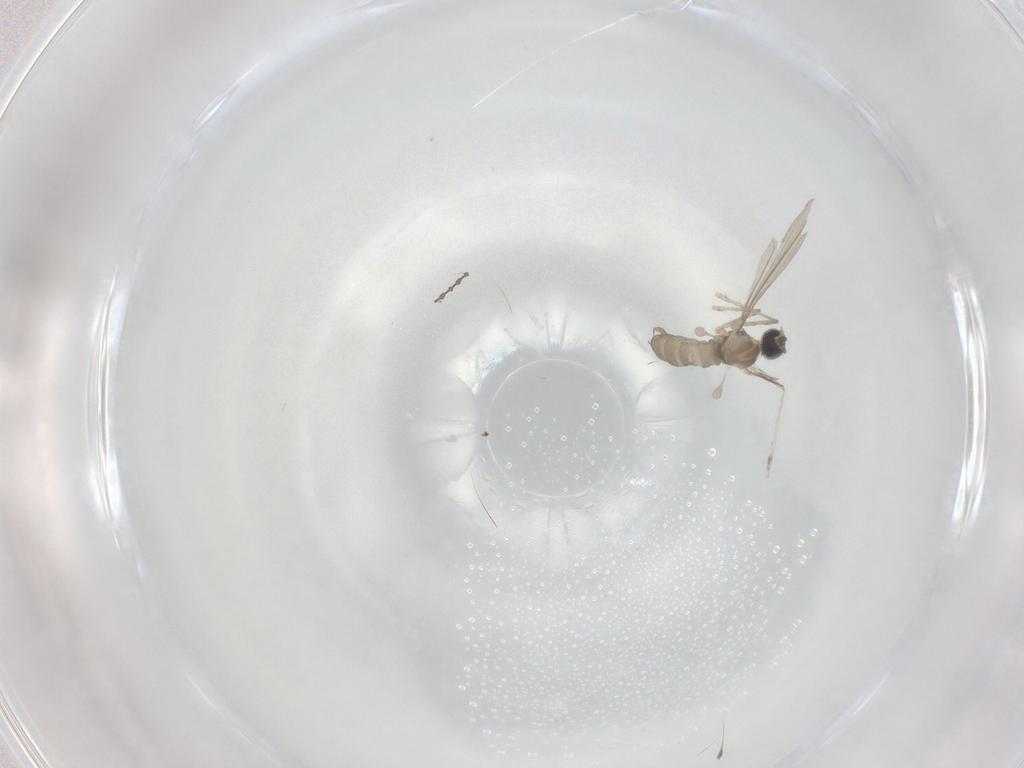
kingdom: Animalia
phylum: Arthropoda
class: Insecta
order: Diptera
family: Cecidomyiidae
